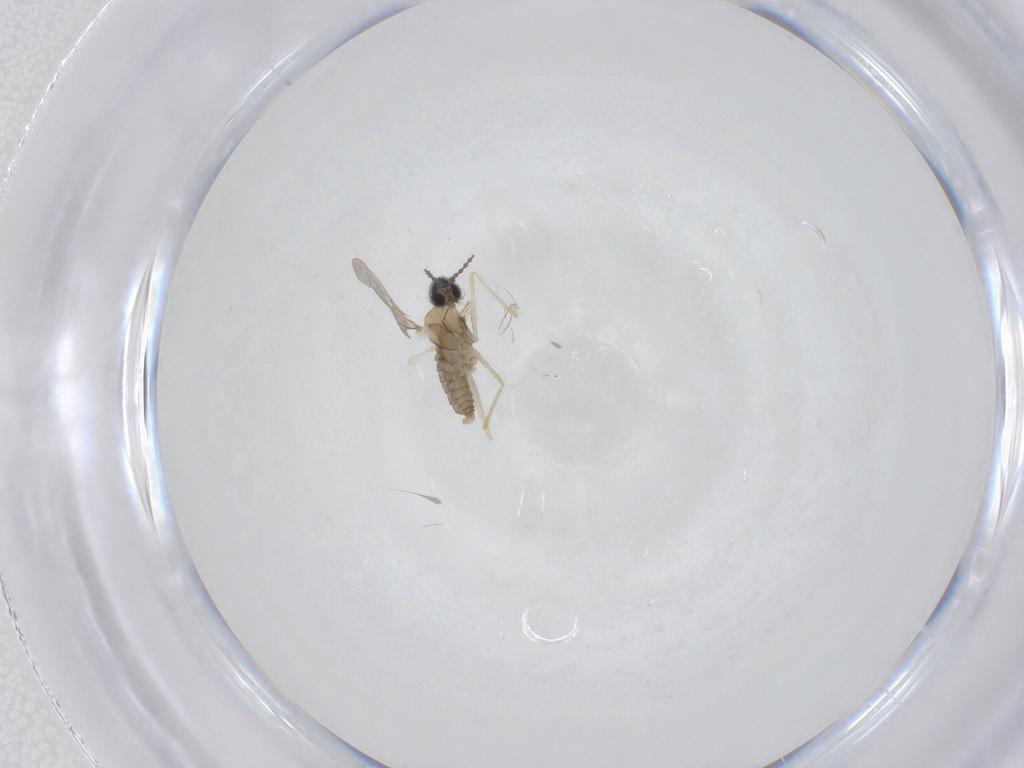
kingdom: Animalia
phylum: Arthropoda
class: Insecta
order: Diptera
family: Cecidomyiidae
